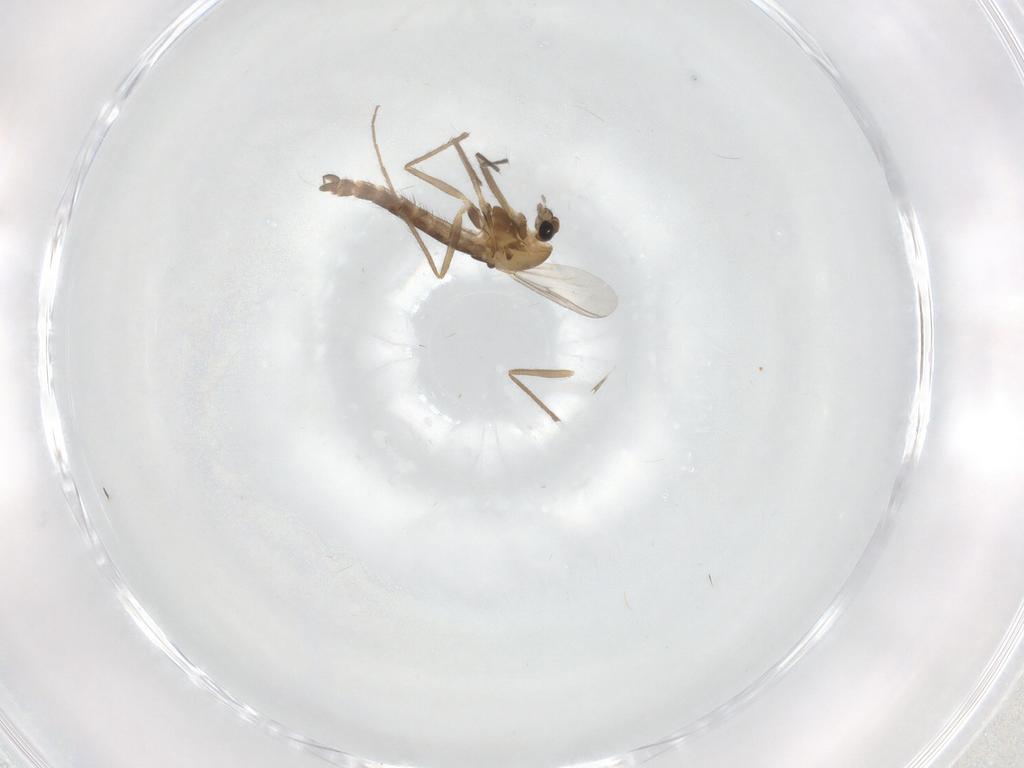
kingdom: Animalia
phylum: Arthropoda
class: Insecta
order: Diptera
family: Chironomidae
